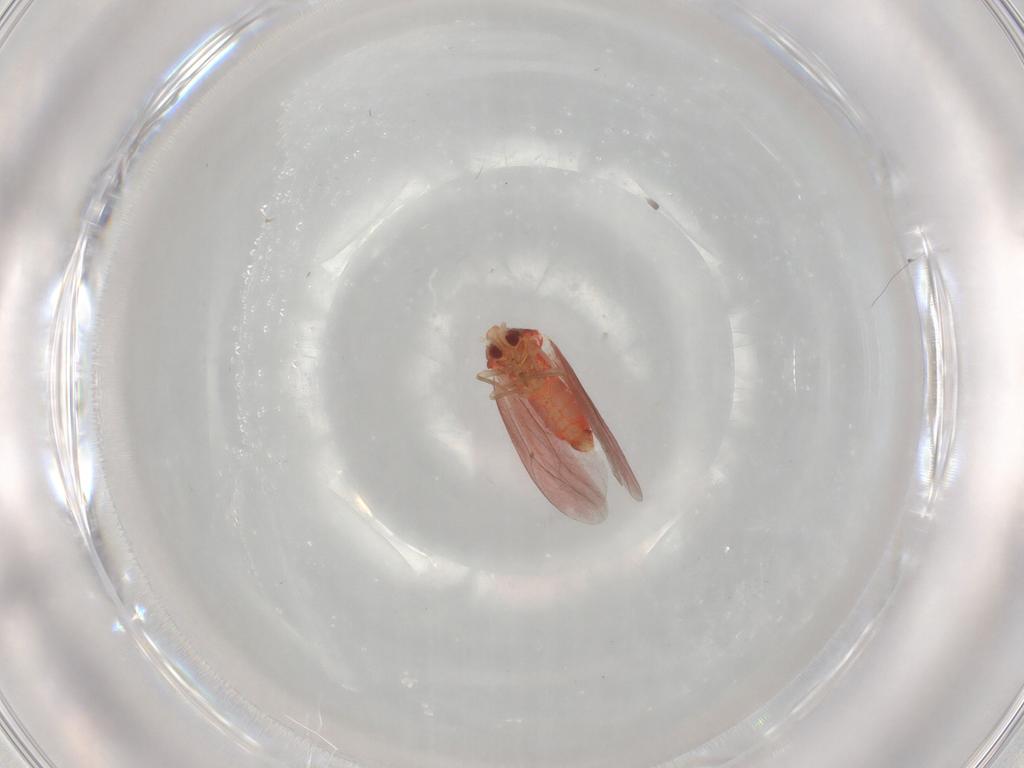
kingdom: Animalia
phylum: Arthropoda
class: Insecta
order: Hemiptera
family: Aleyrodidae
